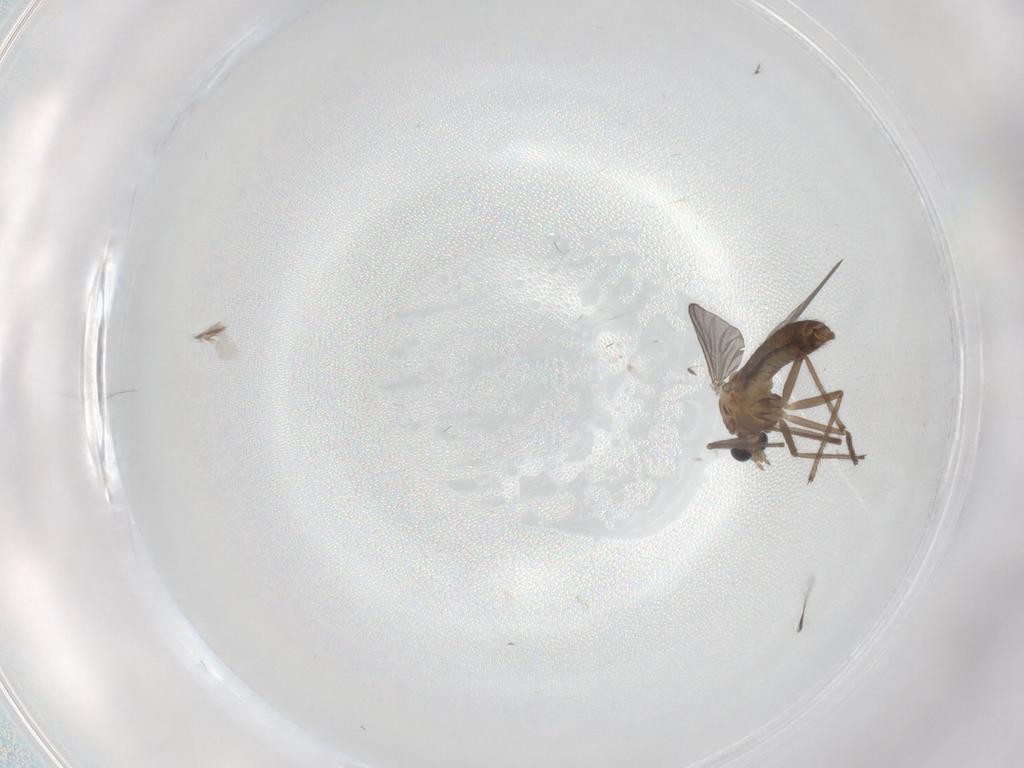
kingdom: Animalia
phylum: Arthropoda
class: Insecta
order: Diptera
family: Chironomidae
